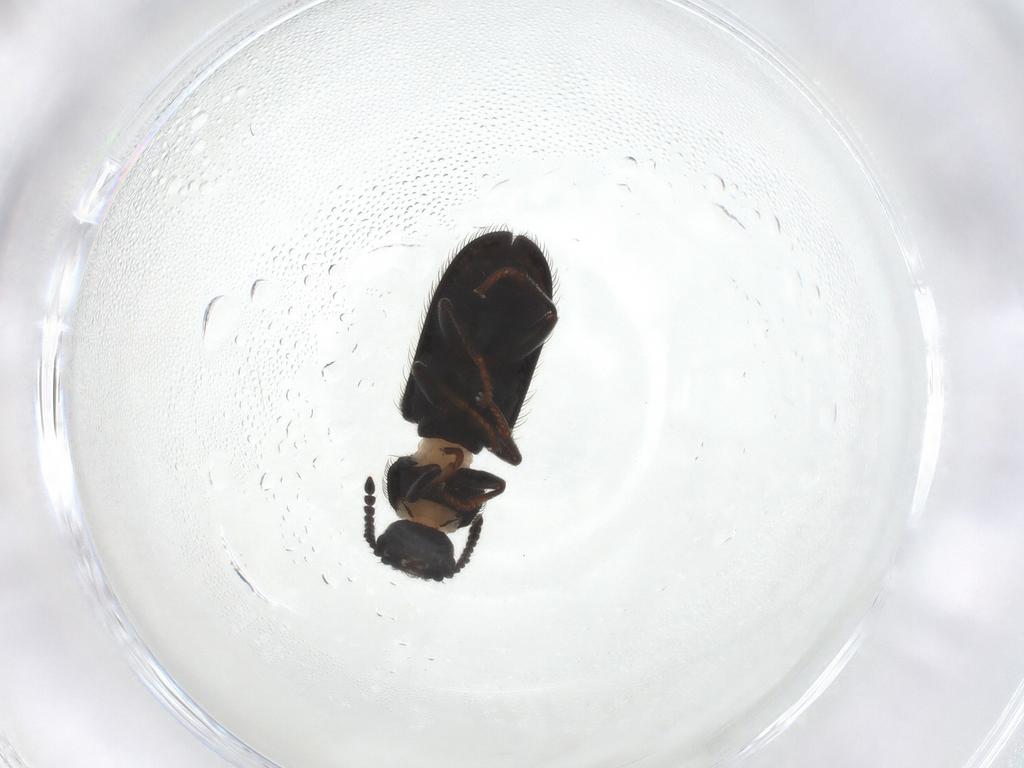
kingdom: Animalia
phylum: Arthropoda
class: Insecta
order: Coleoptera
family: Melyridae
